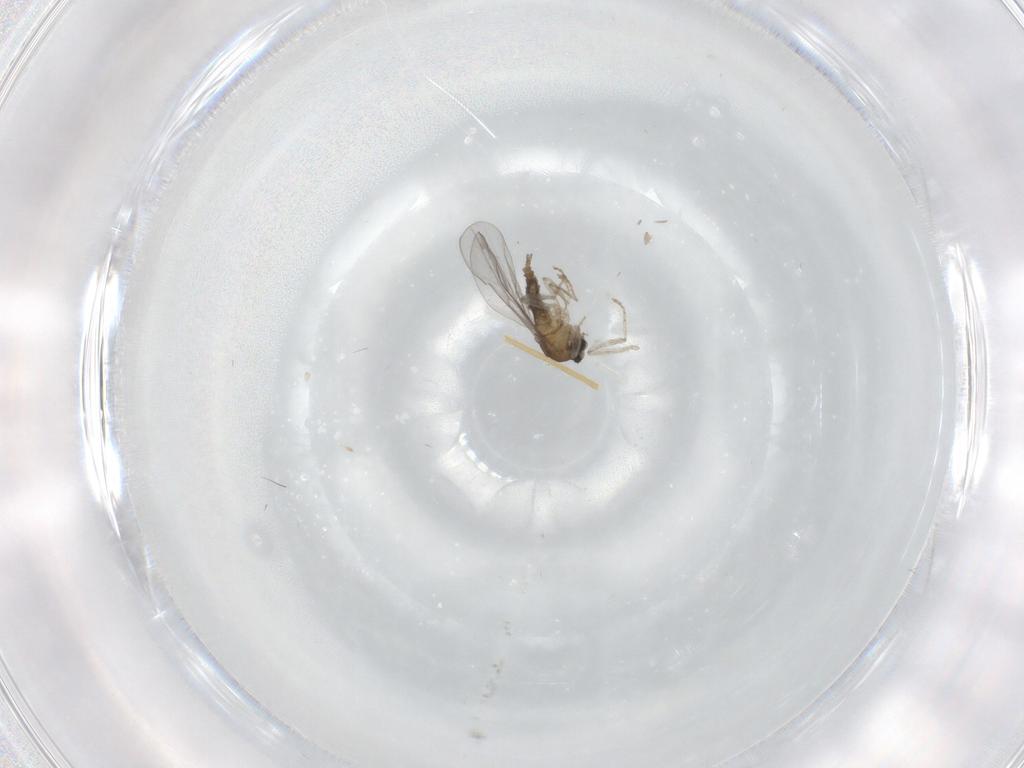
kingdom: Animalia
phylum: Arthropoda
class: Insecta
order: Diptera
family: Cecidomyiidae
